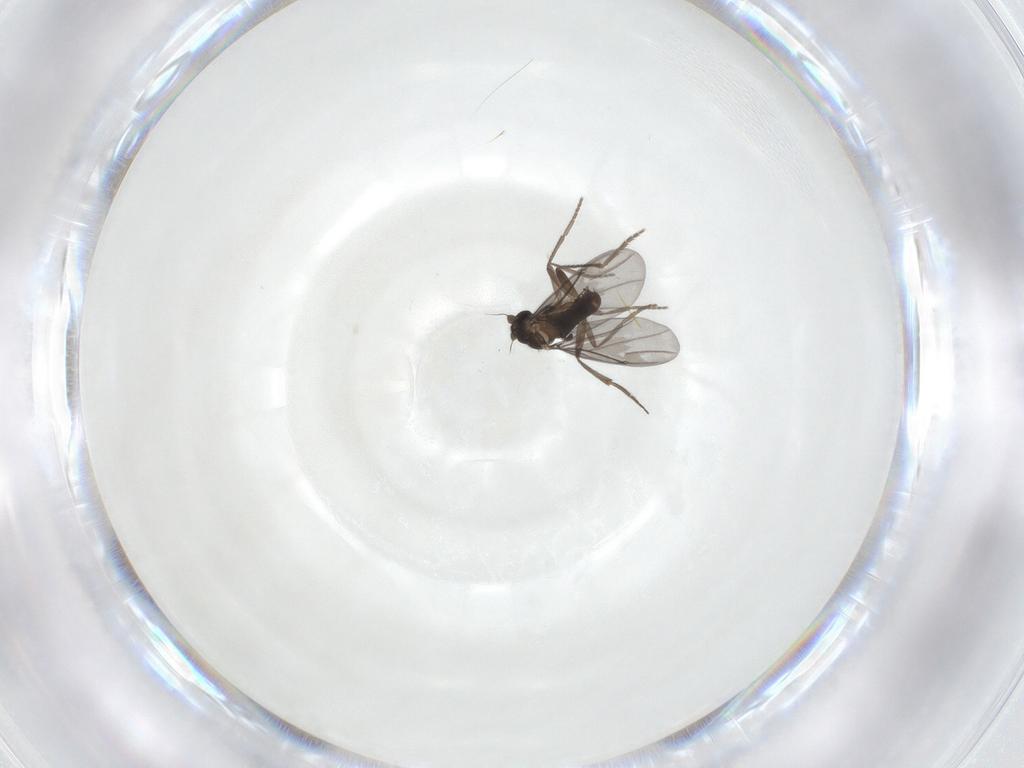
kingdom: Animalia
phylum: Arthropoda
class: Insecta
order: Diptera
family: Phoridae
